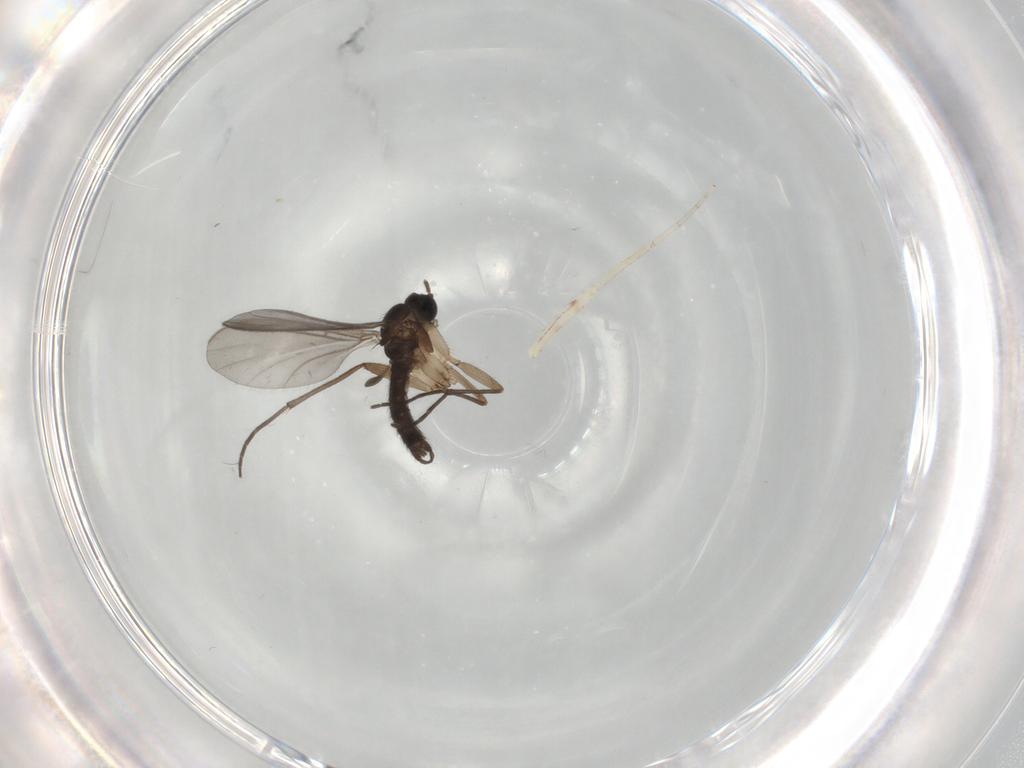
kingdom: Animalia
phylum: Arthropoda
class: Insecta
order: Diptera
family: Sciaridae
